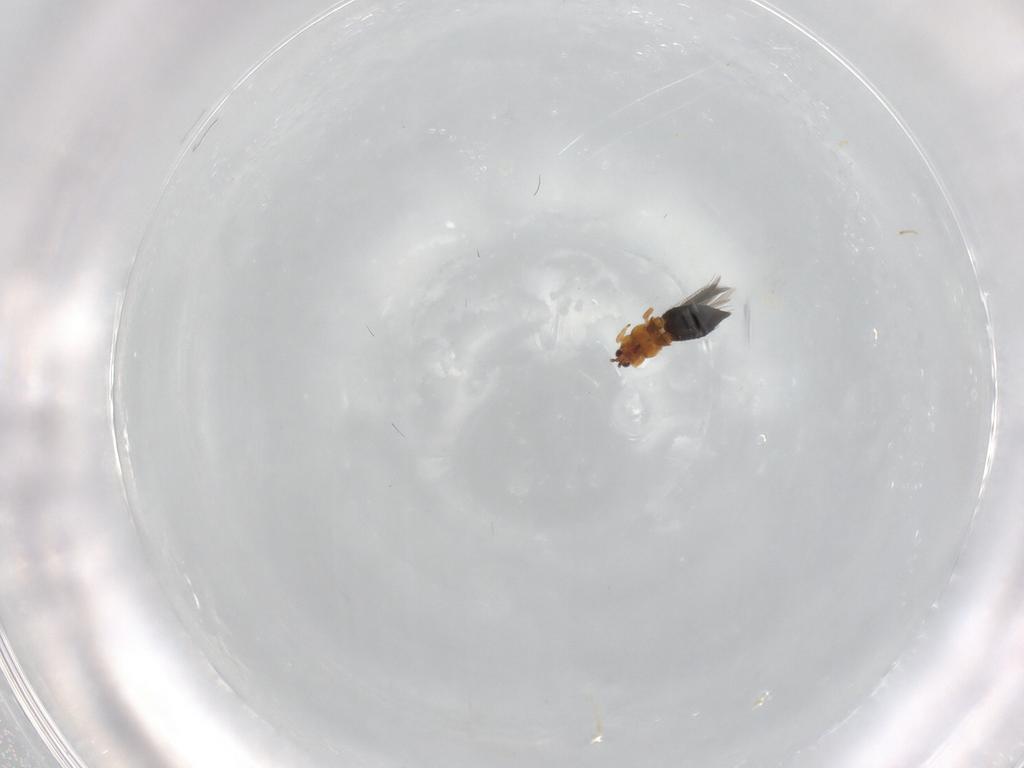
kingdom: Animalia
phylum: Arthropoda
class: Insecta
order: Thysanoptera
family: Thripidae
